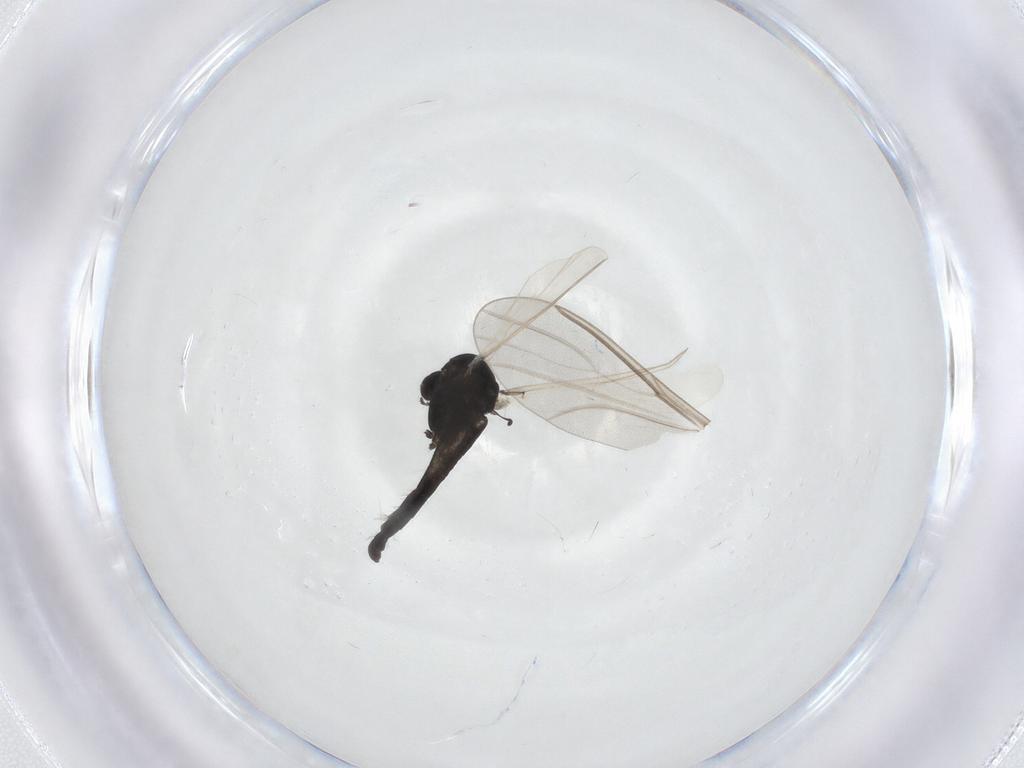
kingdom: Animalia
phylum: Arthropoda
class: Insecta
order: Diptera
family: Cecidomyiidae
